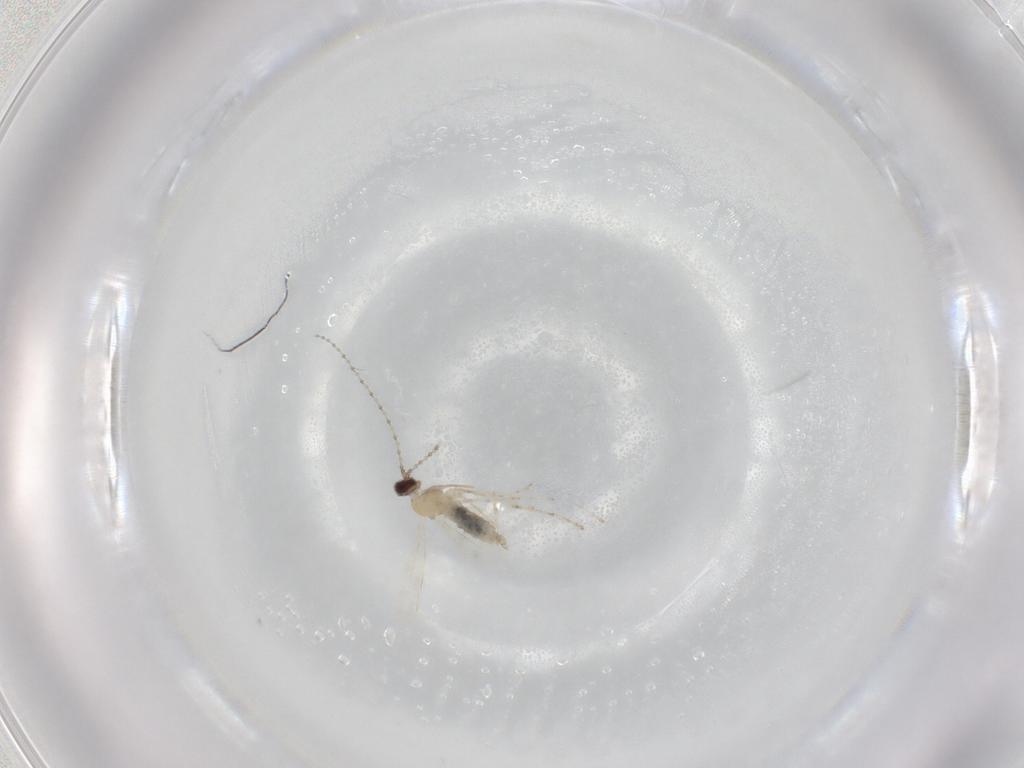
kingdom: Animalia
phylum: Arthropoda
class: Insecta
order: Diptera
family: Cecidomyiidae
